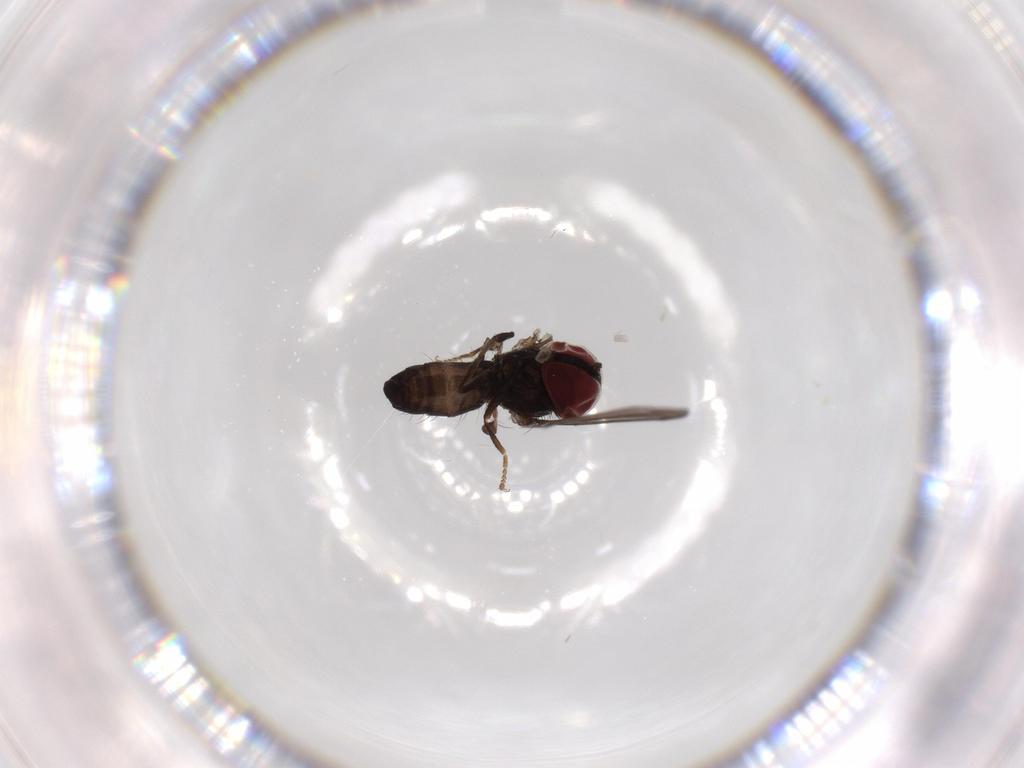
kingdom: Animalia
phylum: Arthropoda
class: Insecta
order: Diptera
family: Pipunculidae
